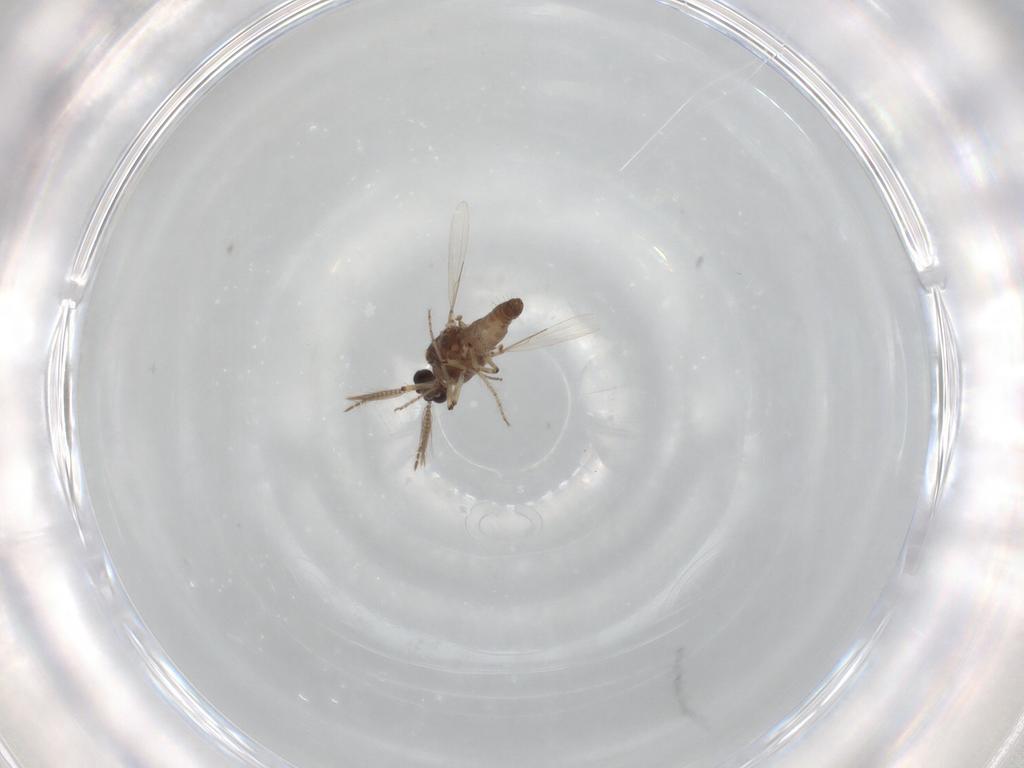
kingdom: Animalia
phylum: Arthropoda
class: Insecta
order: Diptera
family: Ceratopogonidae
